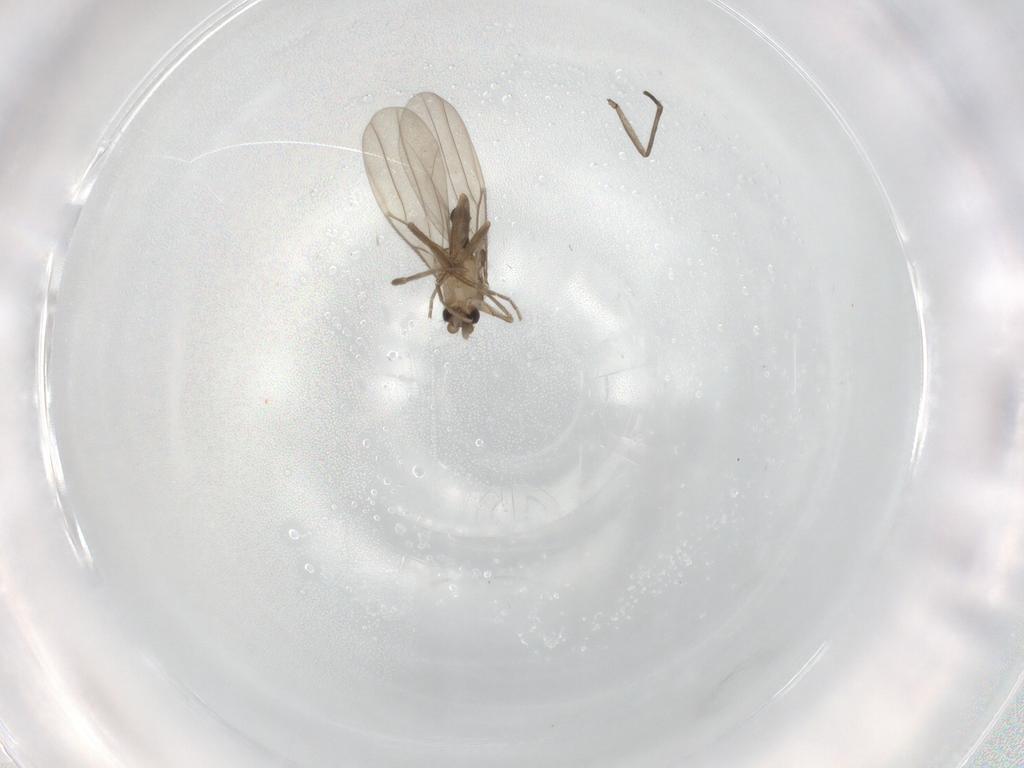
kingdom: Animalia
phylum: Arthropoda
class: Insecta
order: Diptera
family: Phoridae
